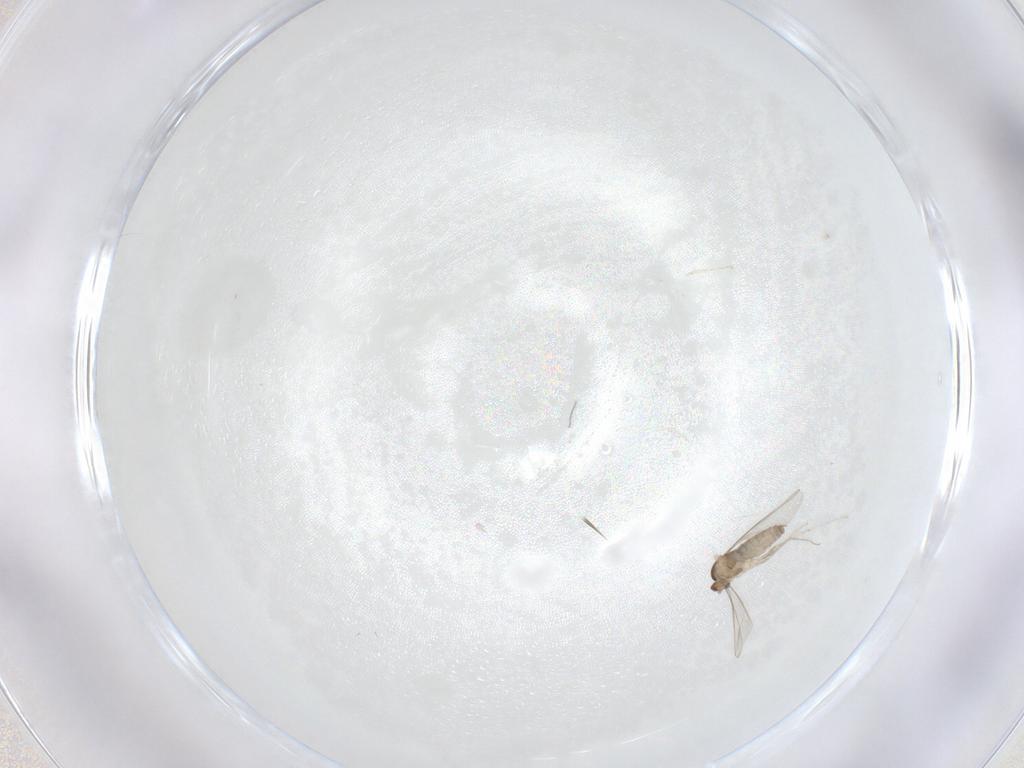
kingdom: Animalia
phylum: Arthropoda
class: Insecta
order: Diptera
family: Cecidomyiidae
